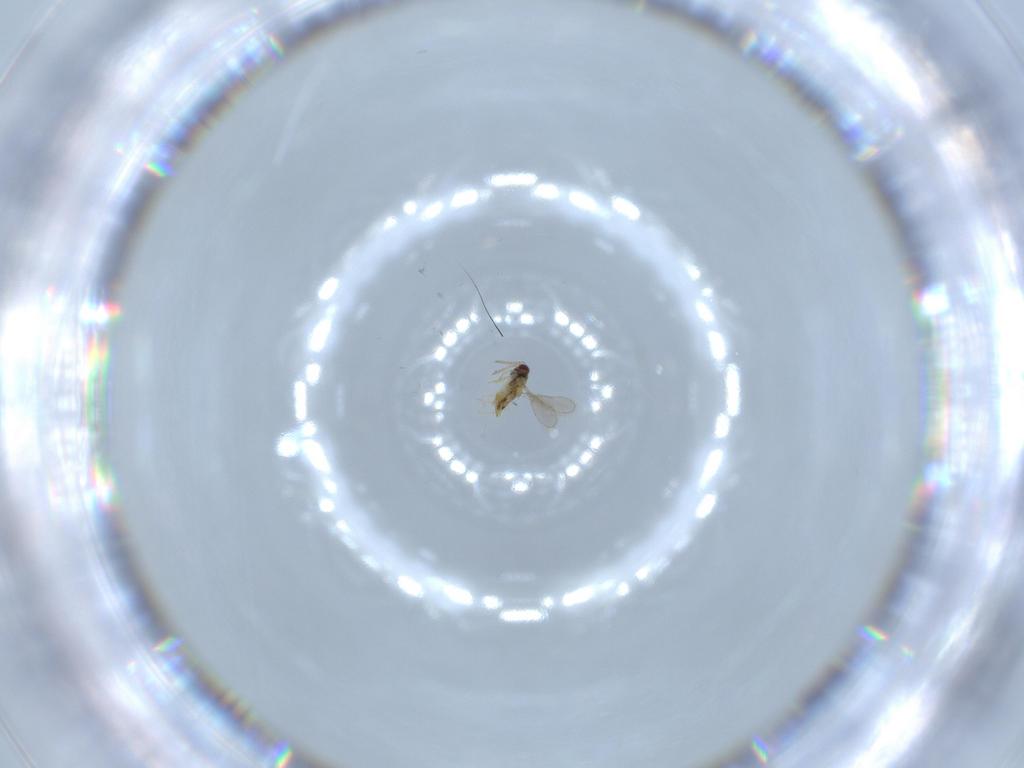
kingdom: Animalia
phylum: Arthropoda
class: Insecta
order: Hymenoptera
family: Aphelinidae
